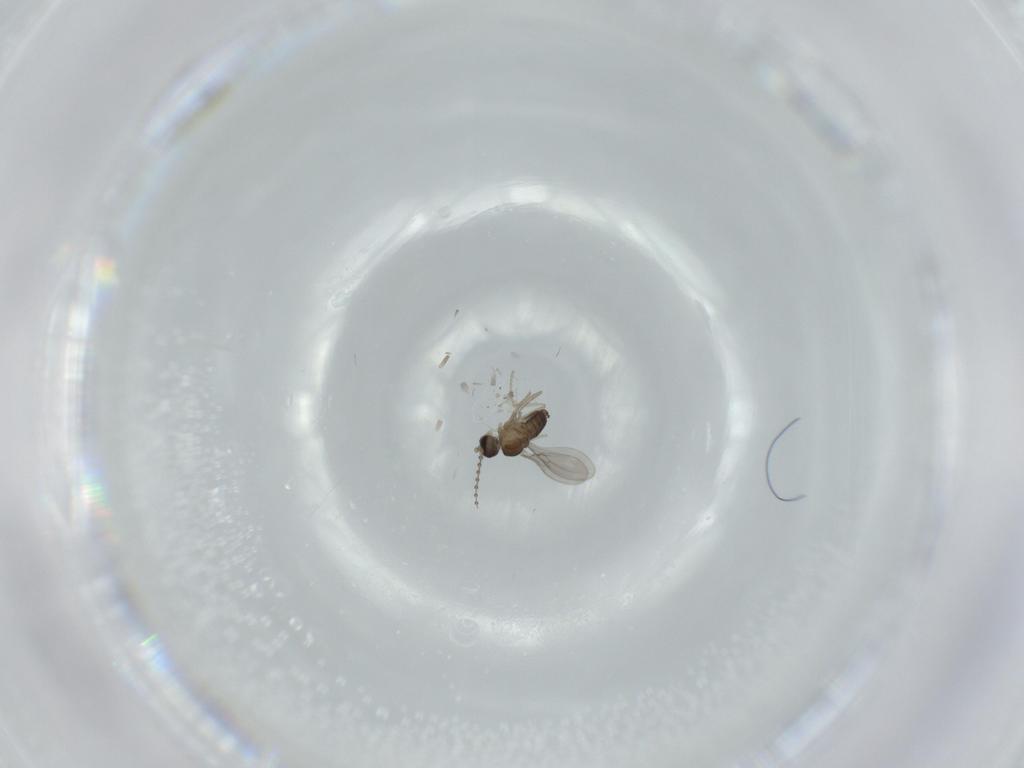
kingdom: Animalia
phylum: Arthropoda
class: Insecta
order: Diptera
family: Cecidomyiidae
